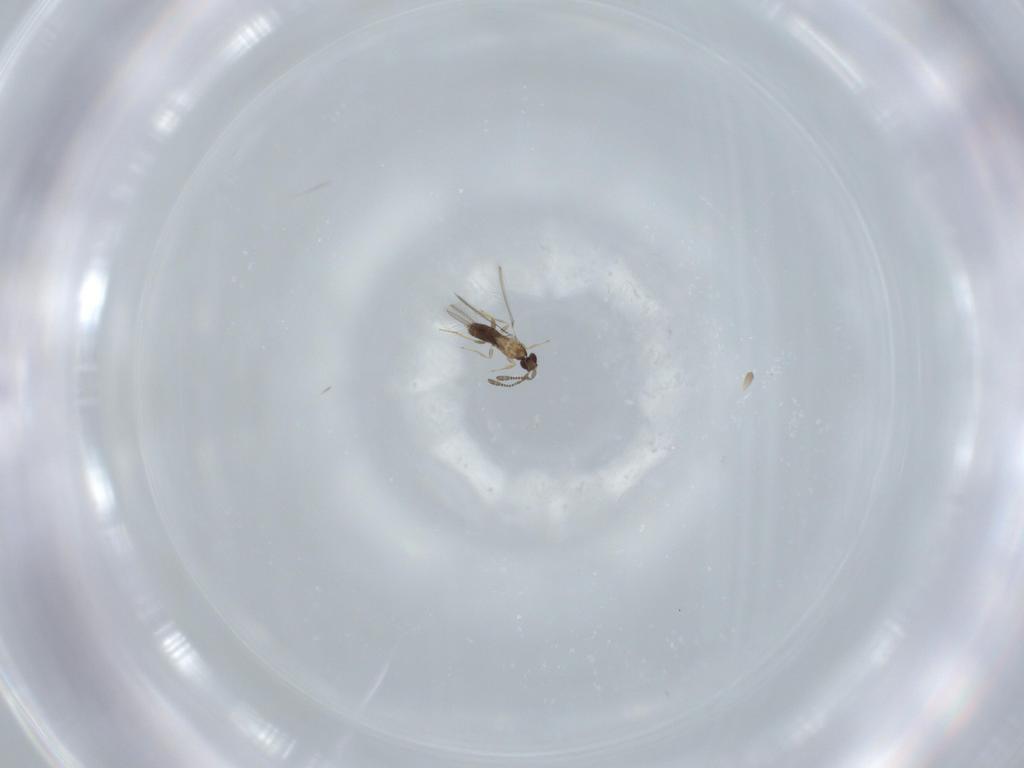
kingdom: Animalia
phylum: Arthropoda
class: Insecta
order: Hymenoptera
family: Mymaridae
